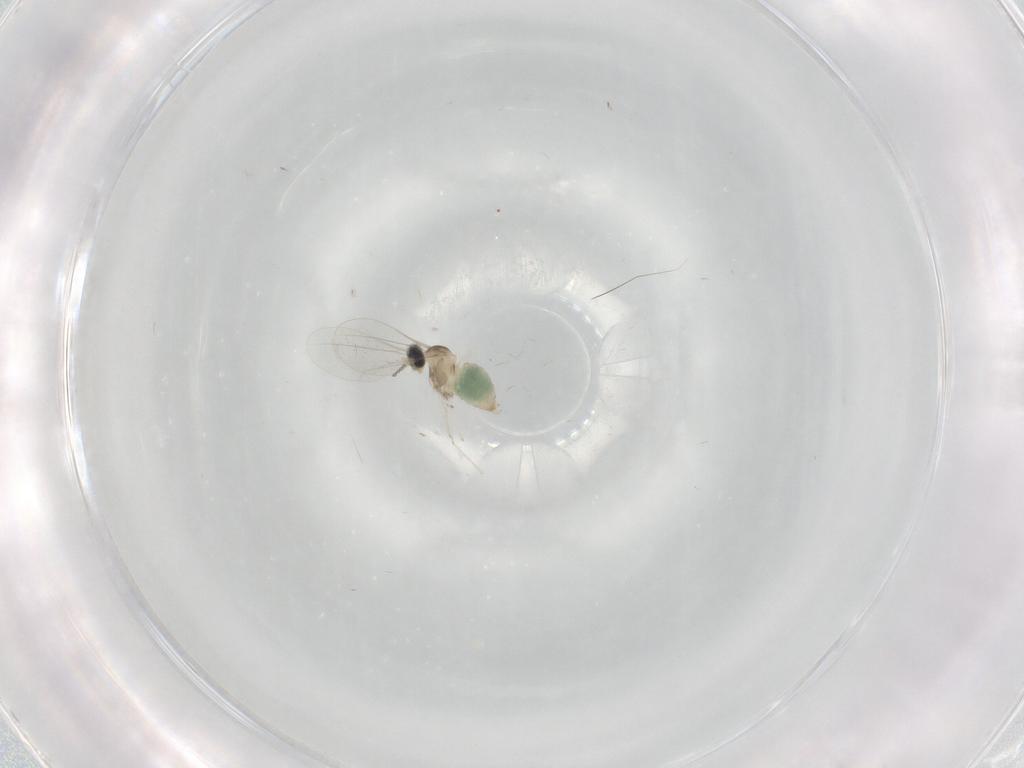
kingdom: Animalia
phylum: Arthropoda
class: Insecta
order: Diptera
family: Cecidomyiidae
